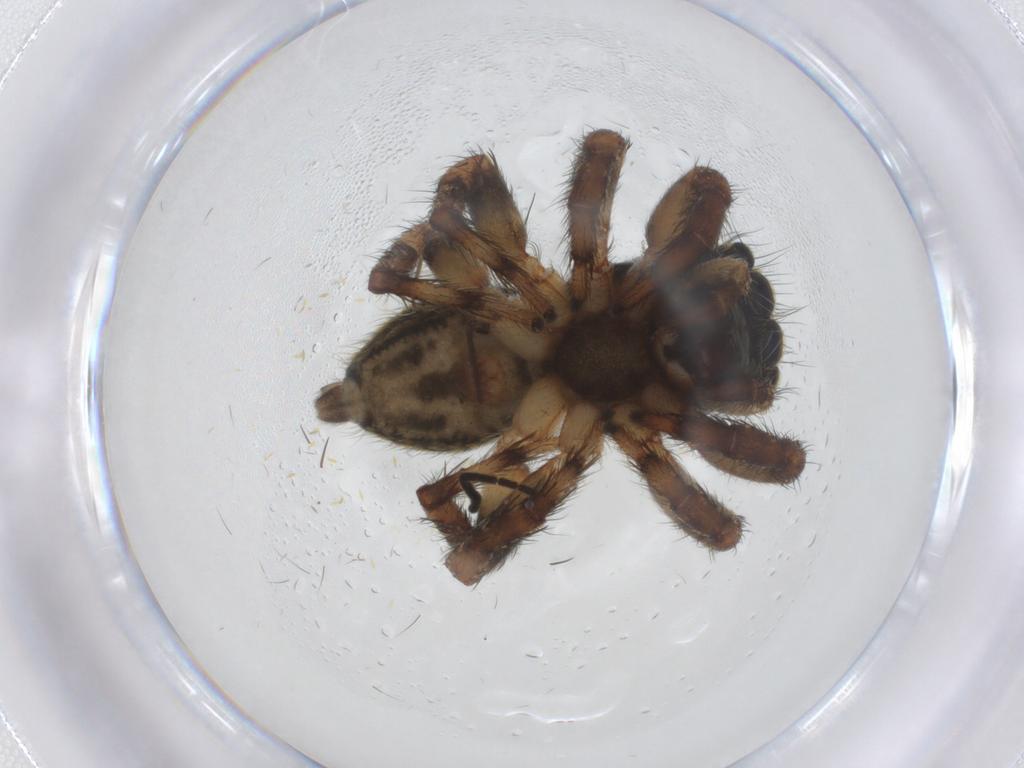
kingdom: Animalia
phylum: Arthropoda
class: Arachnida
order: Araneae
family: Salticidae
